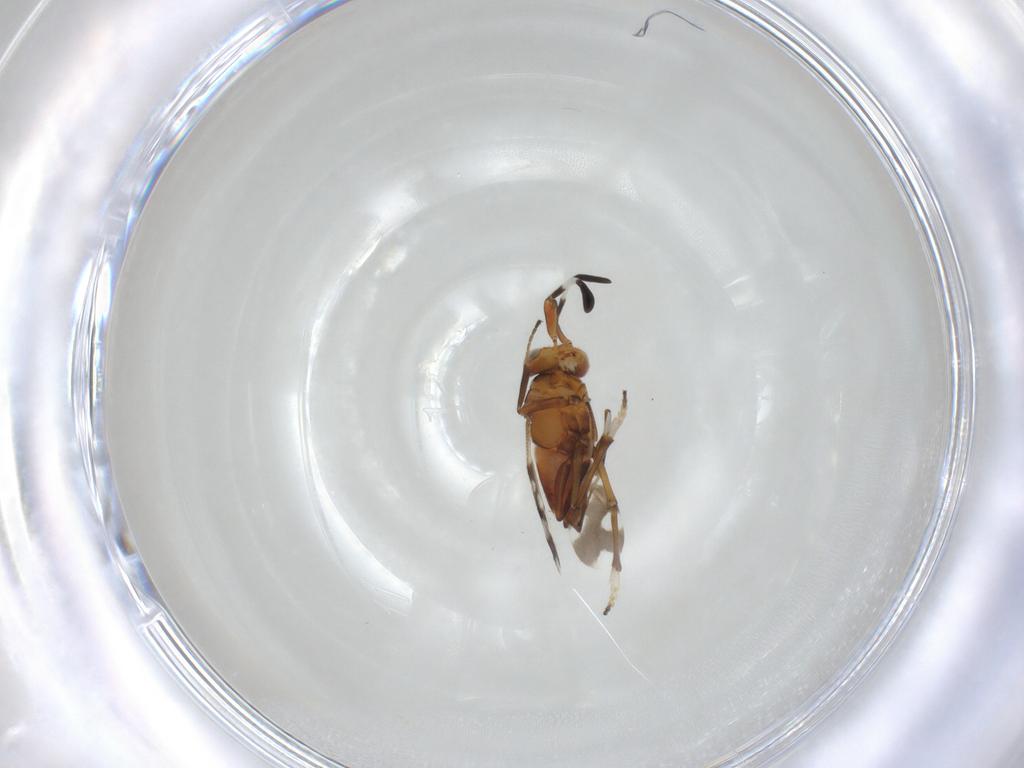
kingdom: Animalia
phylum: Arthropoda
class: Insecta
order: Hymenoptera
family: Encyrtidae
